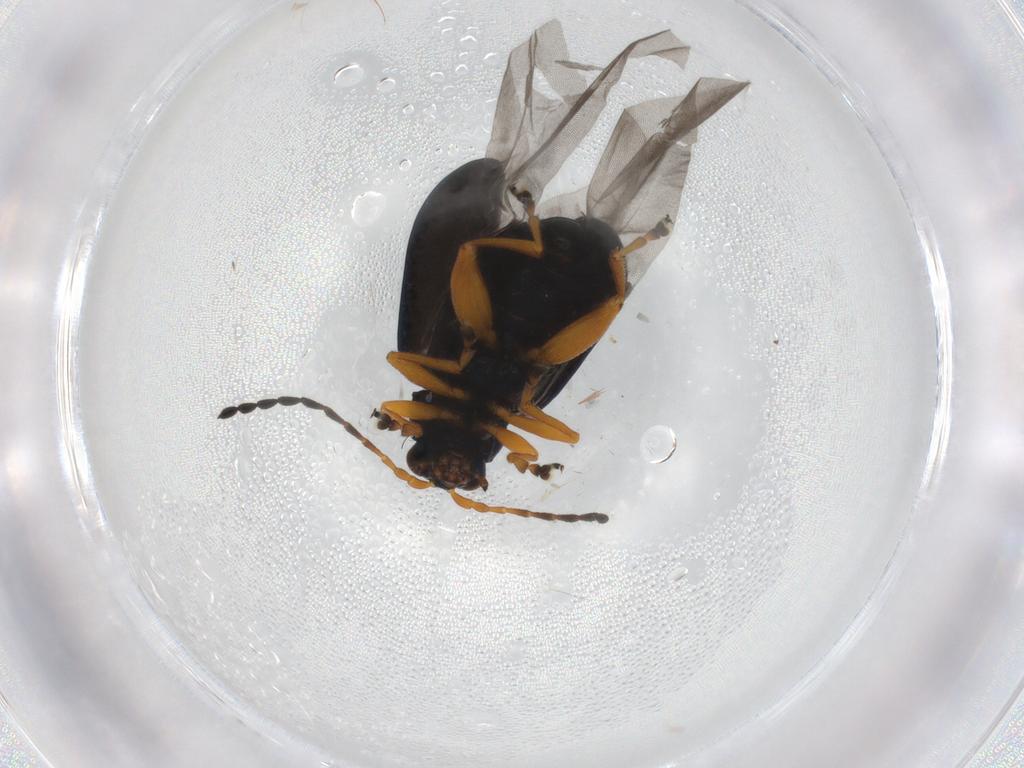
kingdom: Animalia
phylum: Arthropoda
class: Insecta
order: Coleoptera
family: Chrysomelidae
